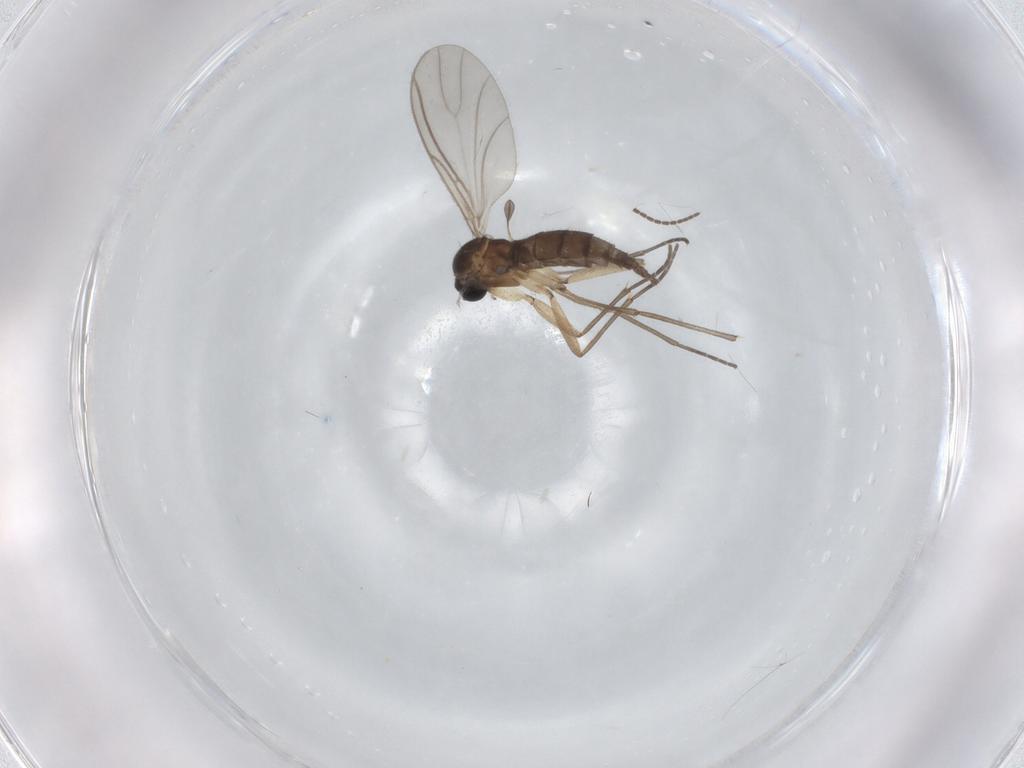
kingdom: Animalia
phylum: Arthropoda
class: Insecta
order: Diptera
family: Sciaridae
